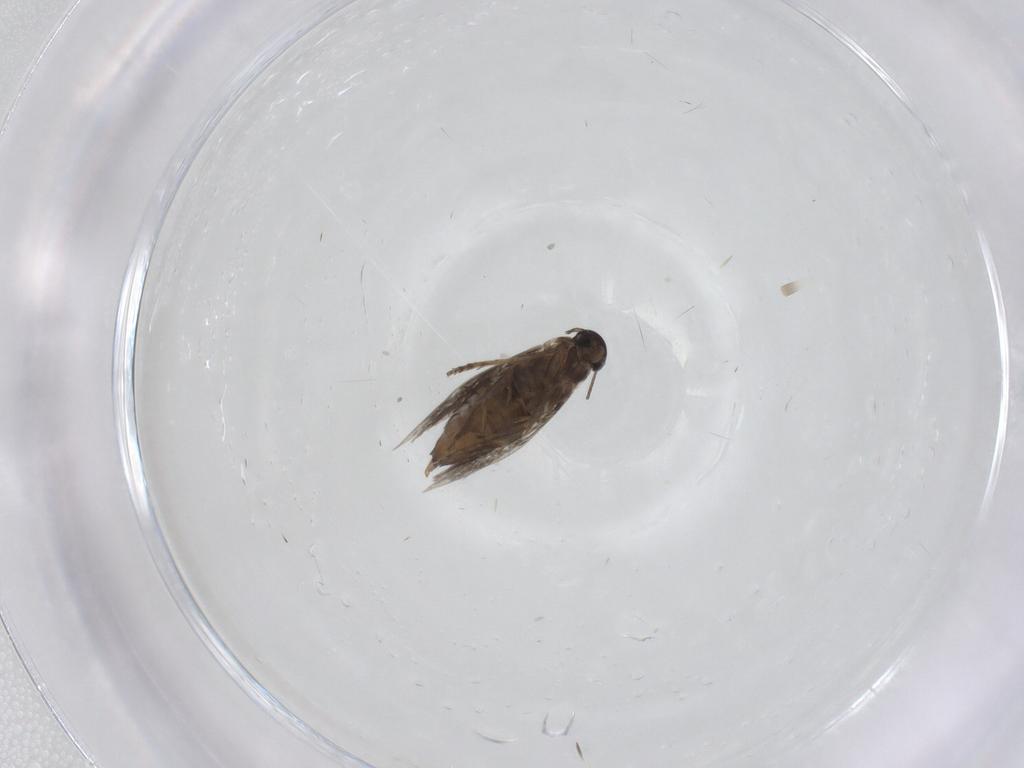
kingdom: Animalia
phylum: Arthropoda
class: Insecta
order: Lepidoptera
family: Heliozelidae
